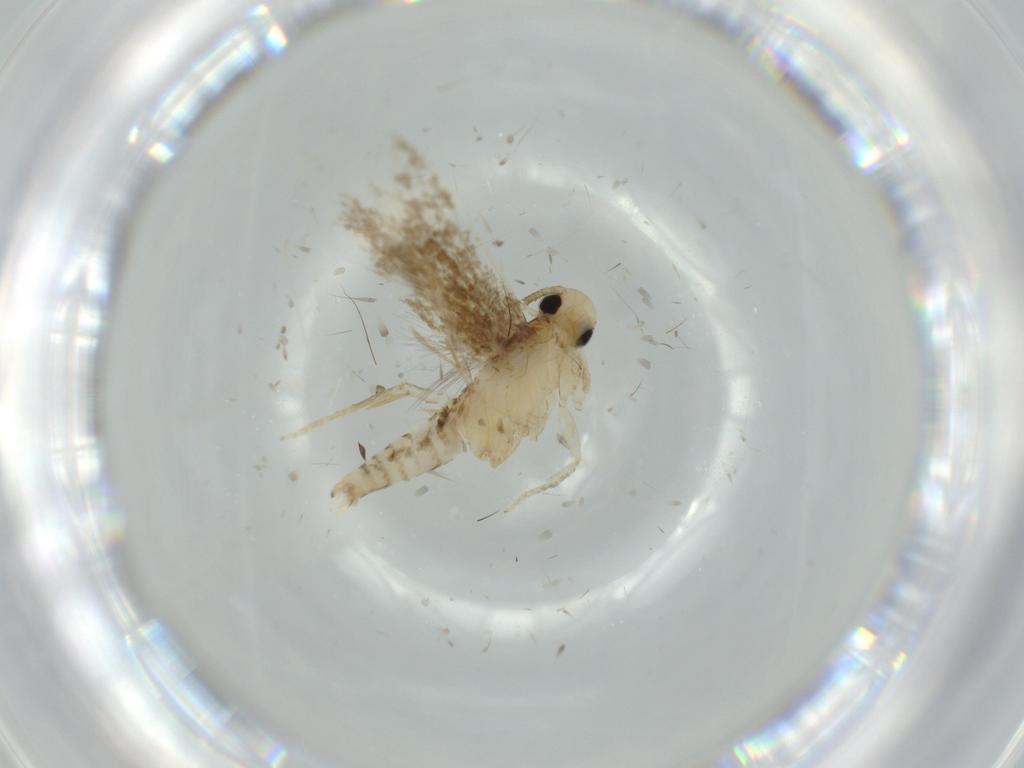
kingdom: Animalia
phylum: Arthropoda
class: Insecta
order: Lepidoptera
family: Tineidae
